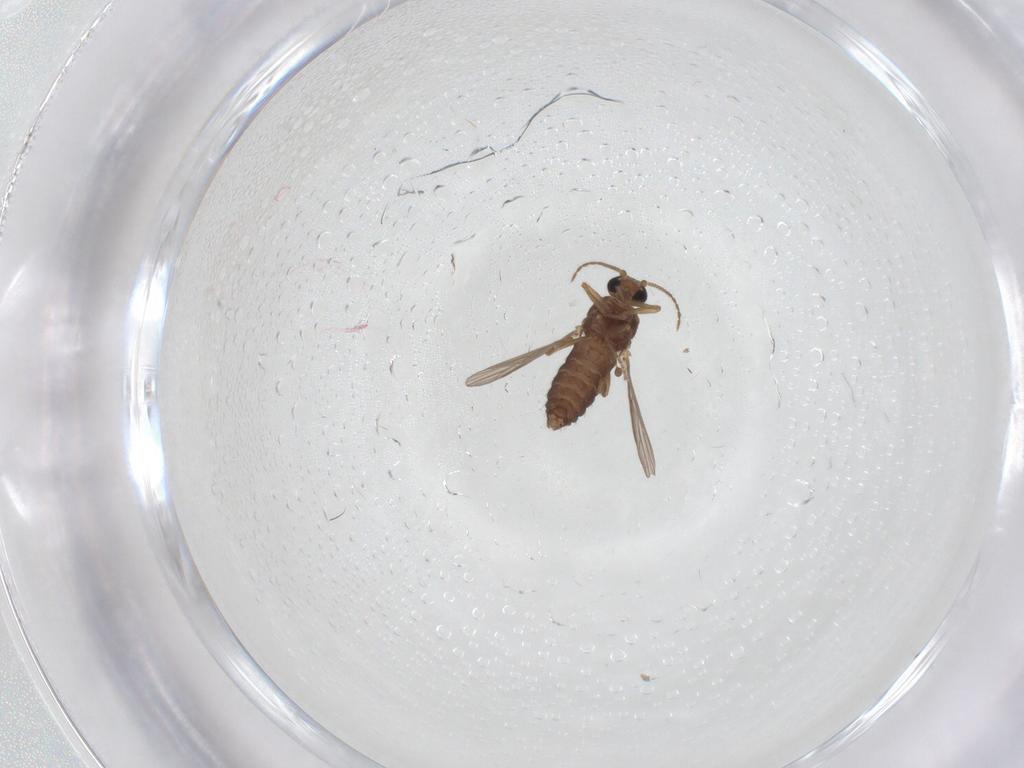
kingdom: Animalia
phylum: Arthropoda
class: Insecta
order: Diptera
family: Ceratopogonidae
